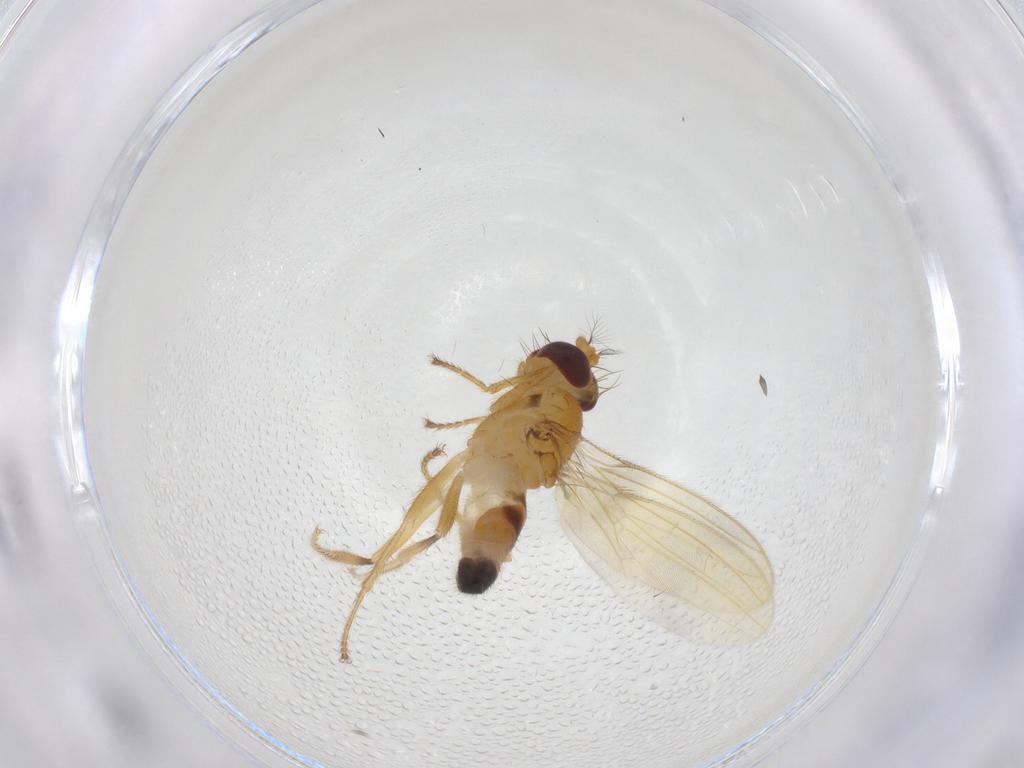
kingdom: Animalia
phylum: Arthropoda
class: Insecta
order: Diptera
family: Periscelididae
